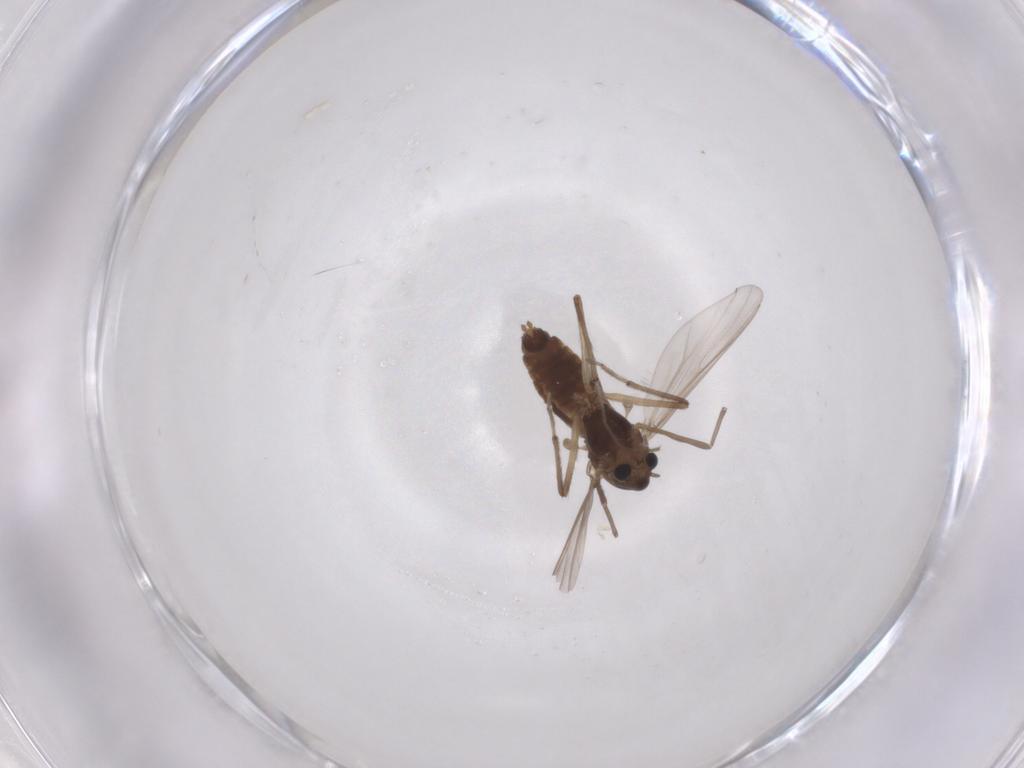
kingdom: Animalia
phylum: Arthropoda
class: Insecta
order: Diptera
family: Chironomidae
